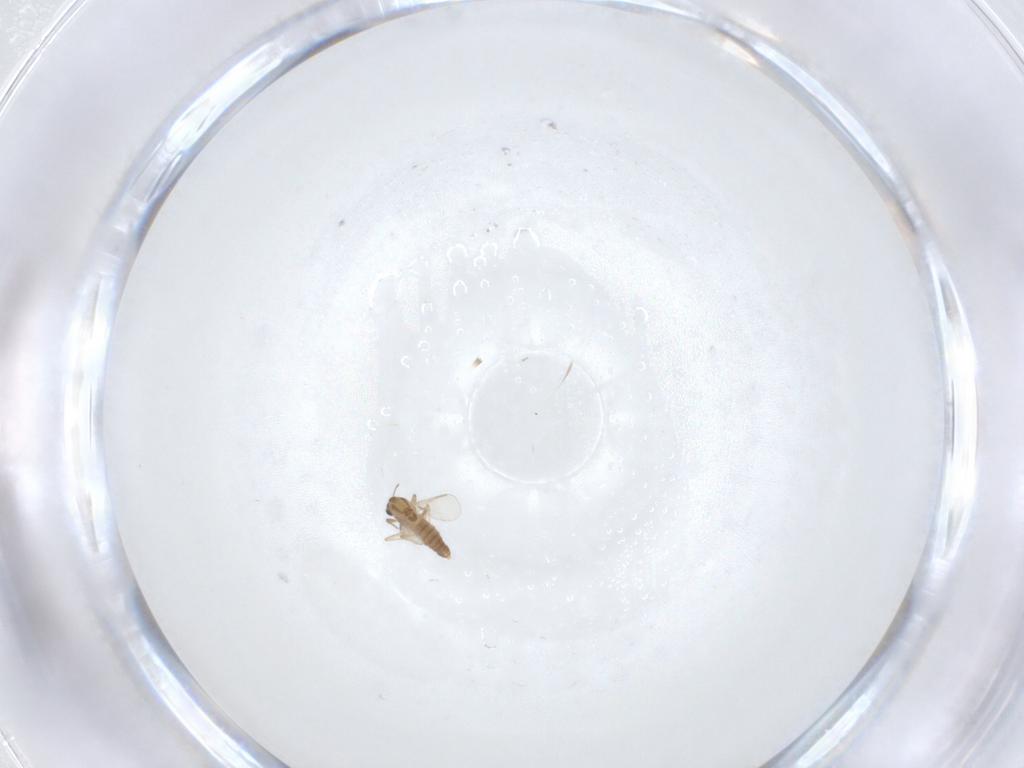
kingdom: Animalia
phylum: Arthropoda
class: Insecta
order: Diptera
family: Chironomidae
